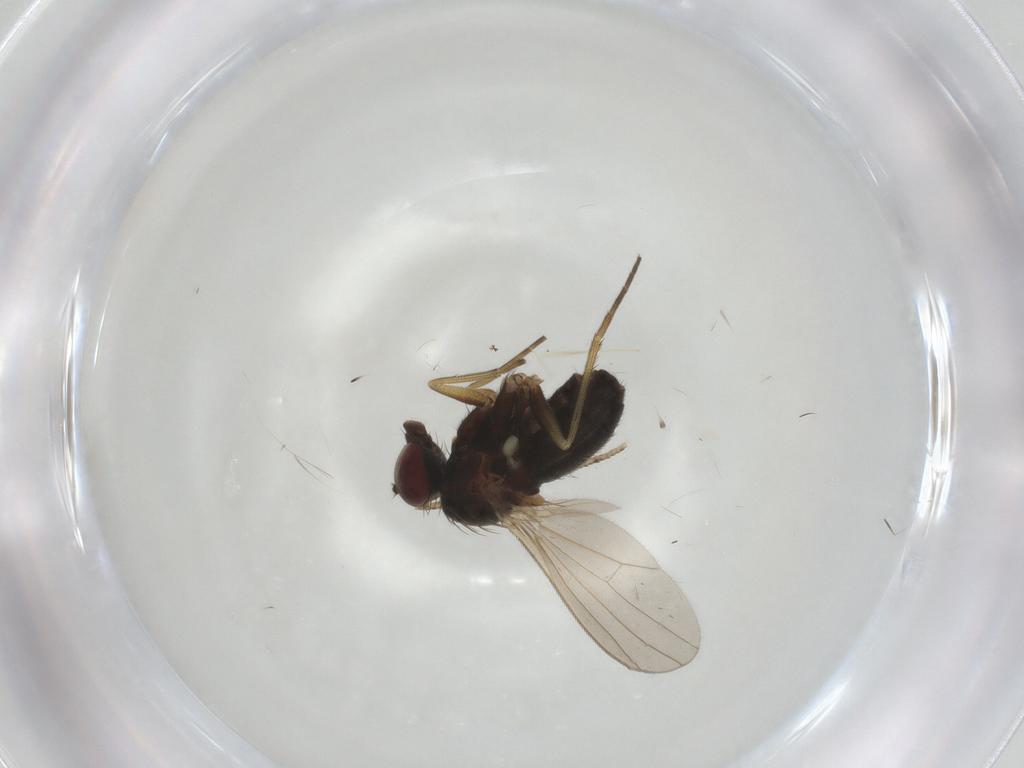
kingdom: Animalia
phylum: Arthropoda
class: Insecta
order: Diptera
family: Dolichopodidae
